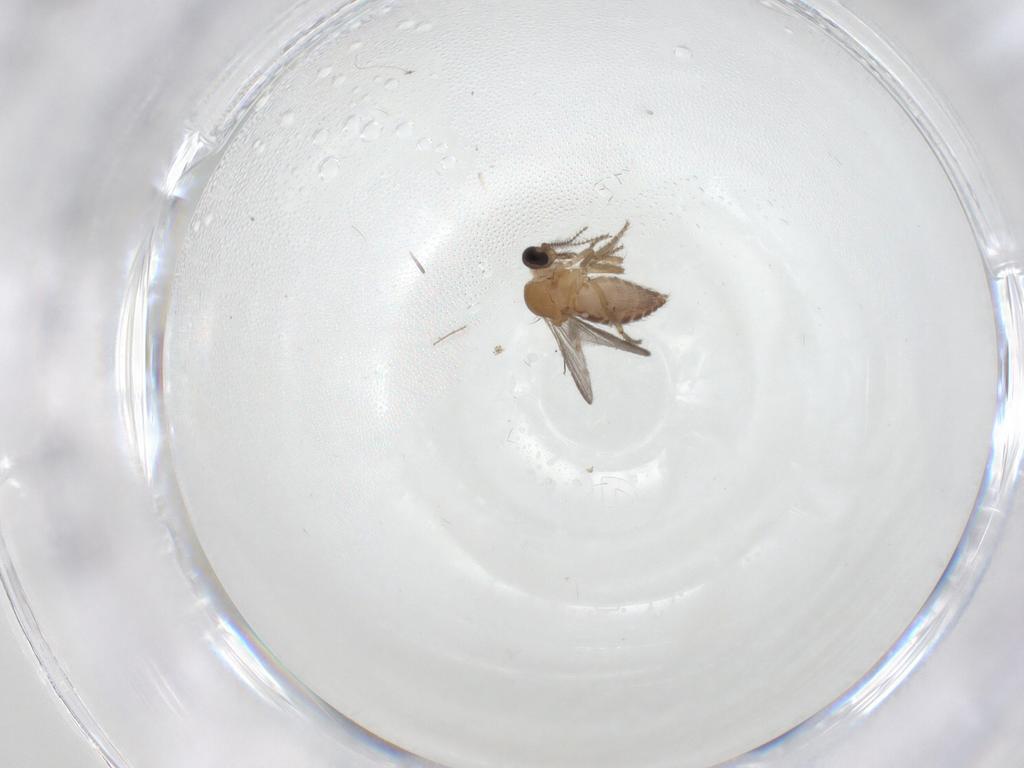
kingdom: Animalia
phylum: Arthropoda
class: Insecta
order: Diptera
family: Ceratopogonidae
